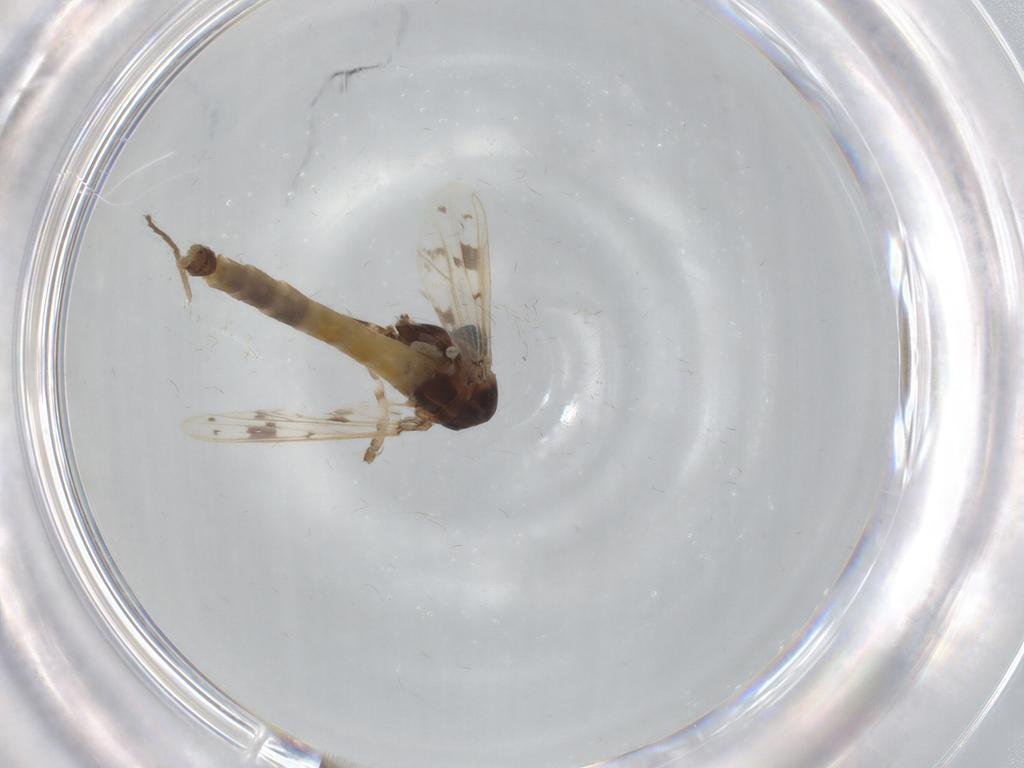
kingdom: Animalia
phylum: Arthropoda
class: Insecta
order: Diptera
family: Chironomidae
